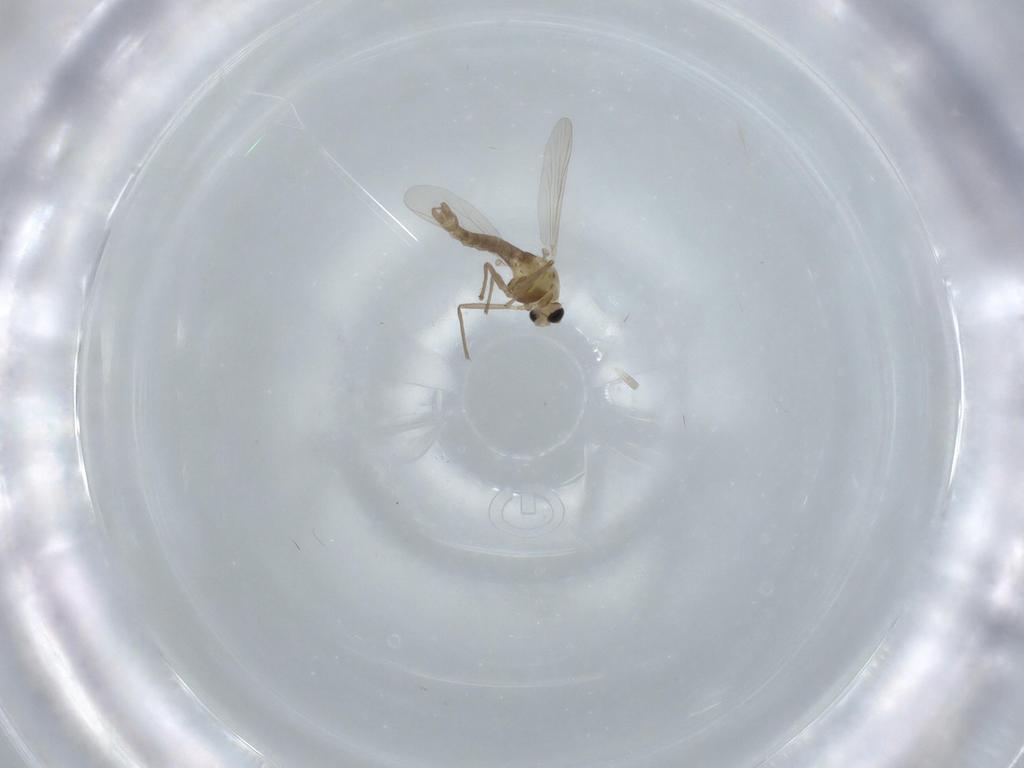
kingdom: Animalia
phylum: Arthropoda
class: Insecta
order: Diptera
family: Chironomidae
